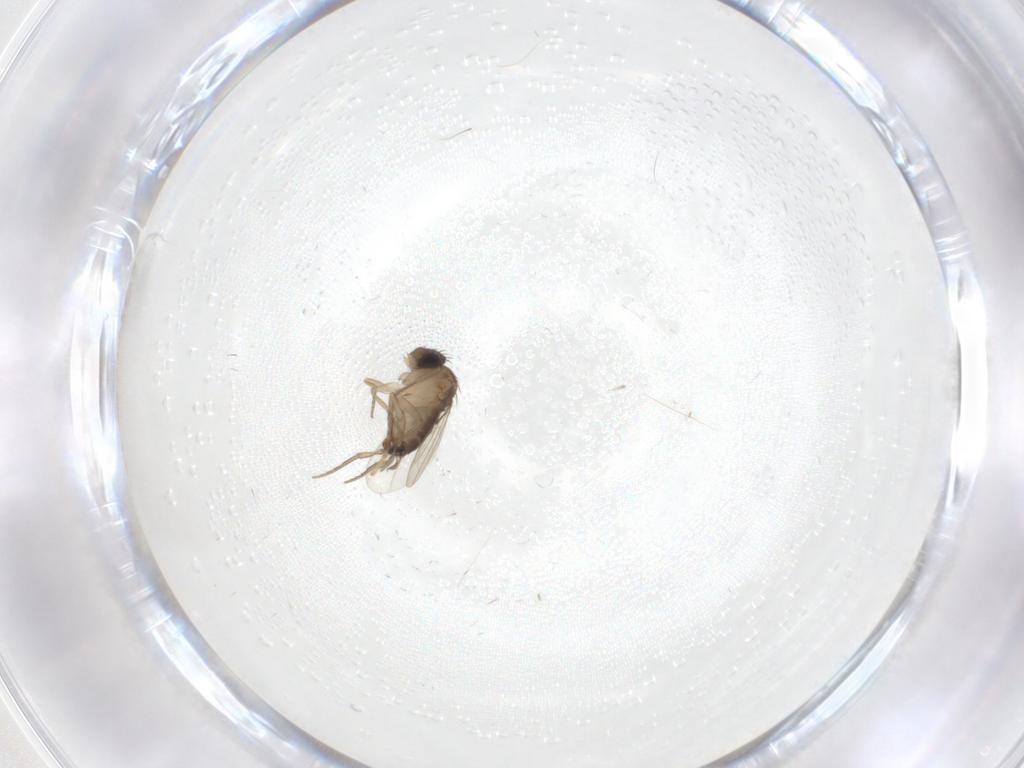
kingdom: Animalia
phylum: Arthropoda
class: Insecta
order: Diptera
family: Psychodidae
